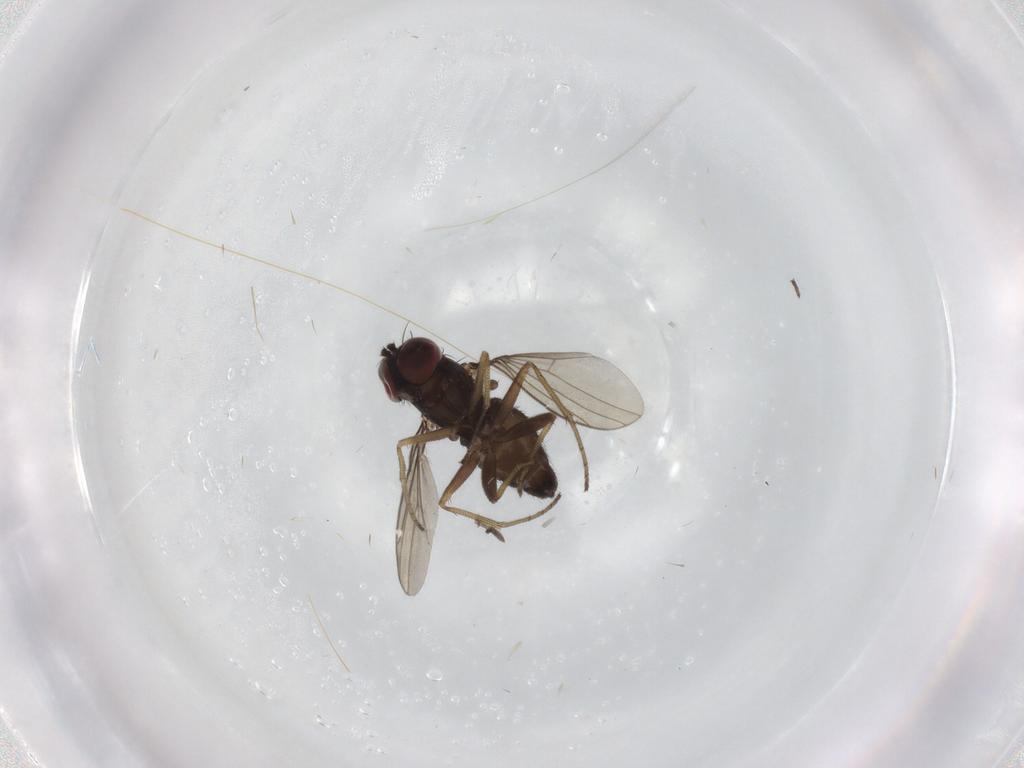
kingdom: Animalia
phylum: Arthropoda
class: Insecta
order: Diptera
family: Dolichopodidae
